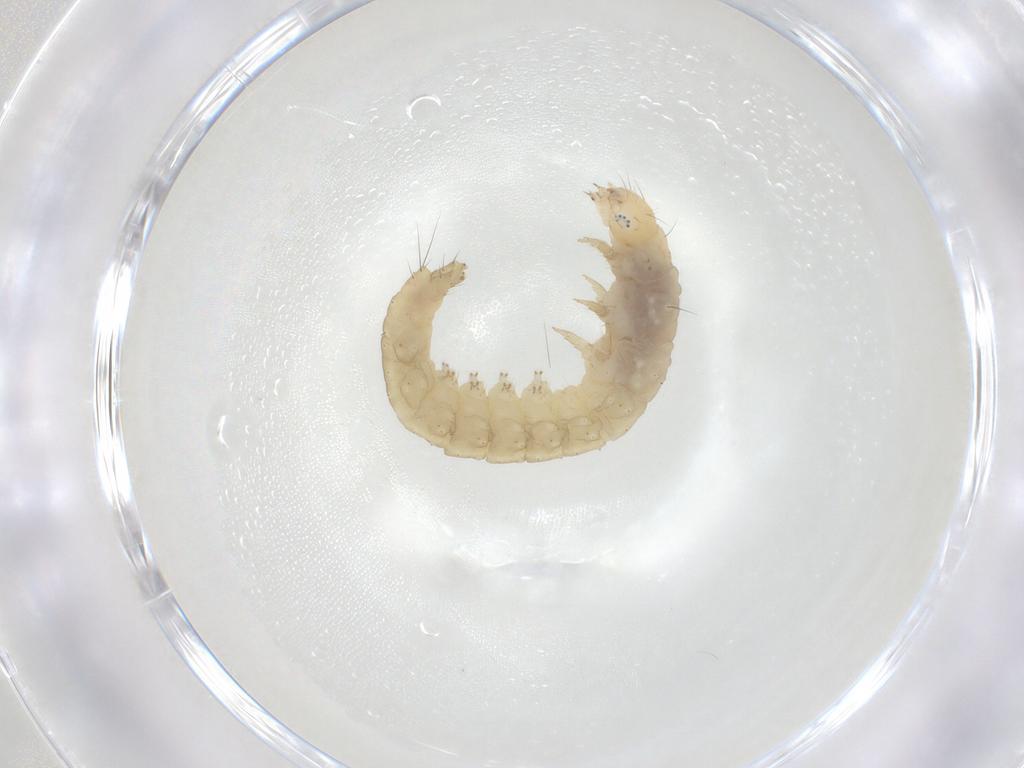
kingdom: Animalia
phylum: Arthropoda
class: Insecta
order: Lepidoptera
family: Gelechiidae
